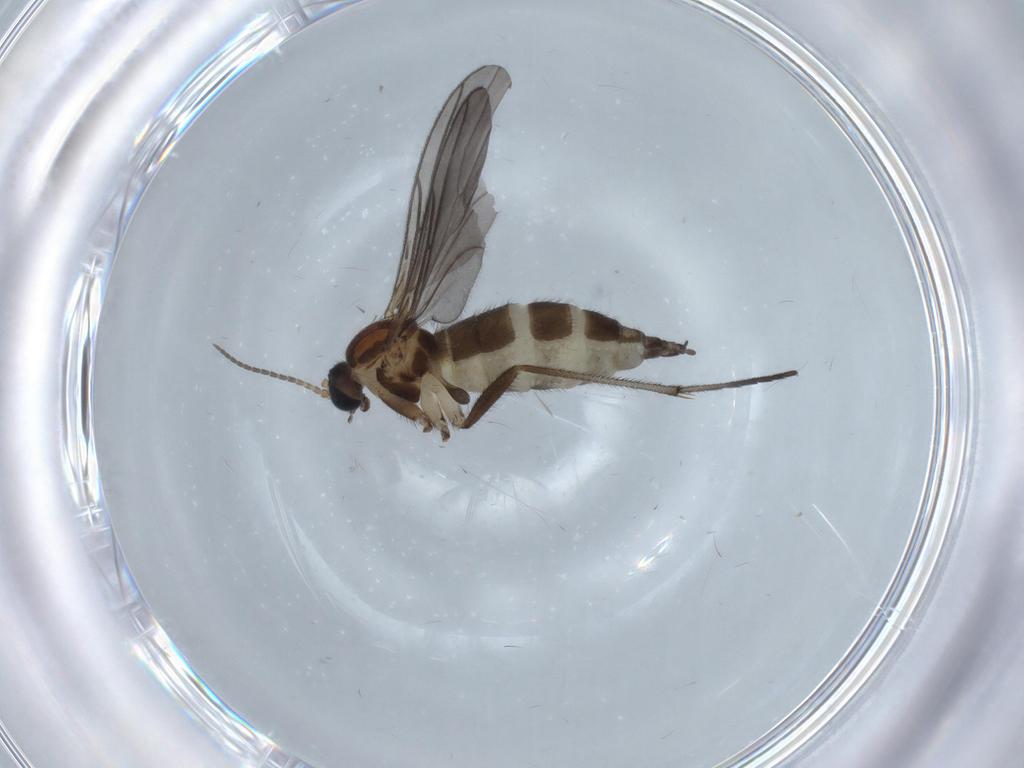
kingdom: Animalia
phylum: Arthropoda
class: Insecta
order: Diptera
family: Sciaridae
